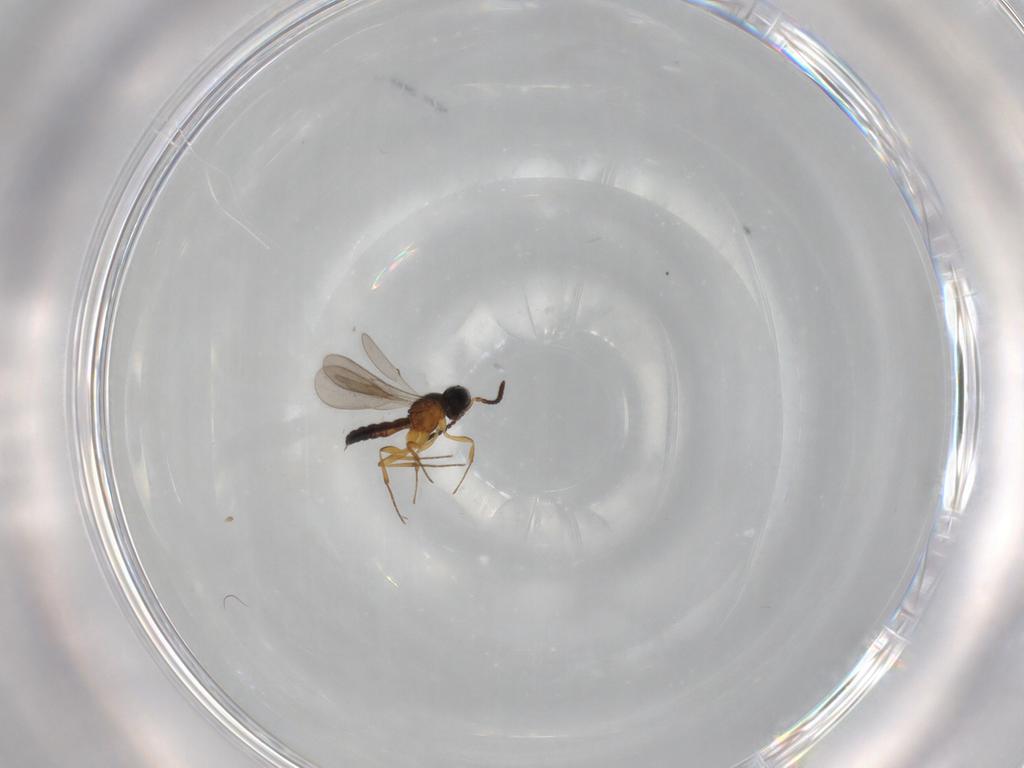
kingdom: Animalia
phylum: Arthropoda
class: Insecta
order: Hymenoptera
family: Scelionidae
